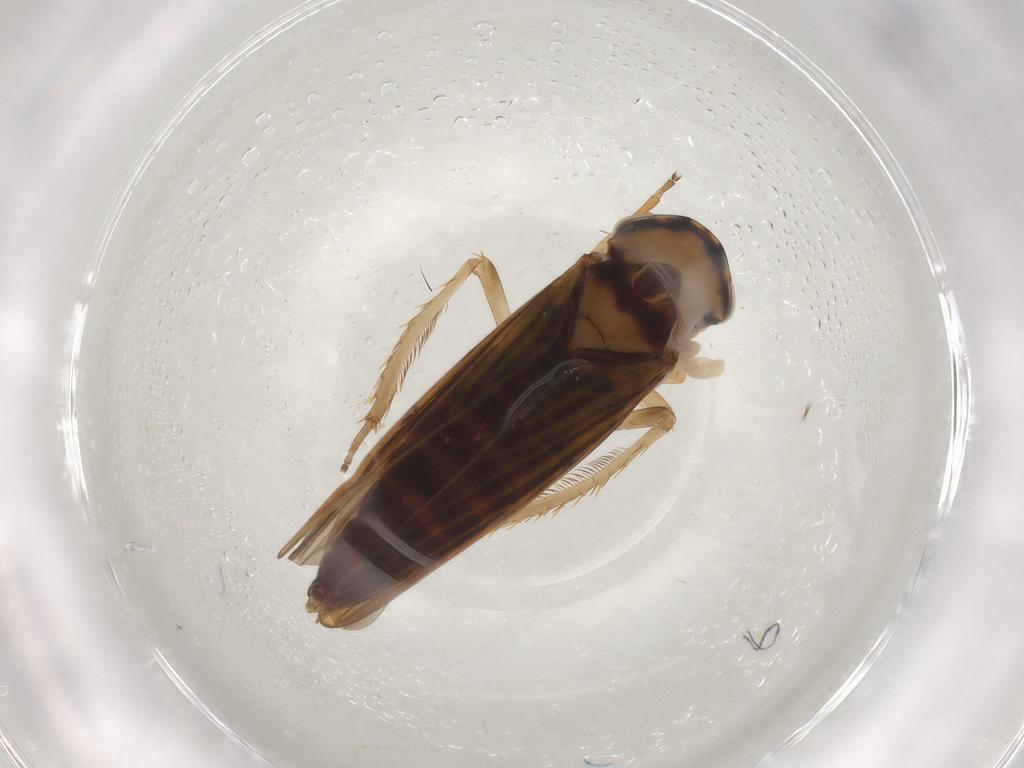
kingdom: Animalia
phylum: Arthropoda
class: Insecta
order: Hemiptera
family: Cicadellidae
